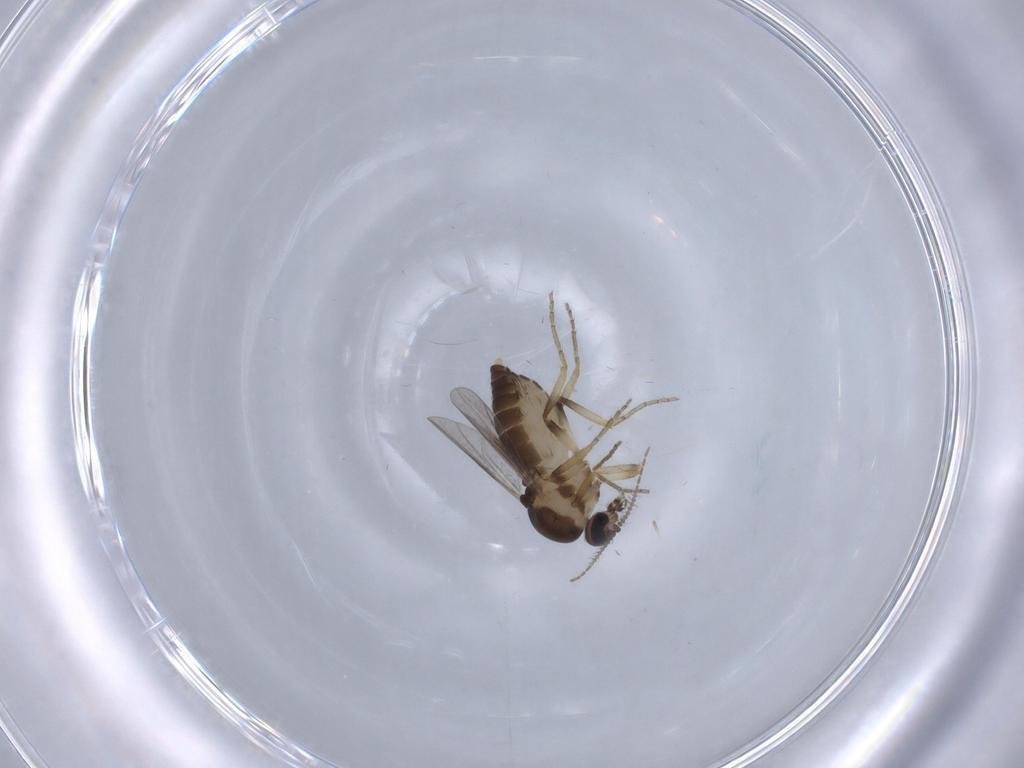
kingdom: Animalia
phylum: Arthropoda
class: Insecta
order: Diptera
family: Ceratopogonidae
